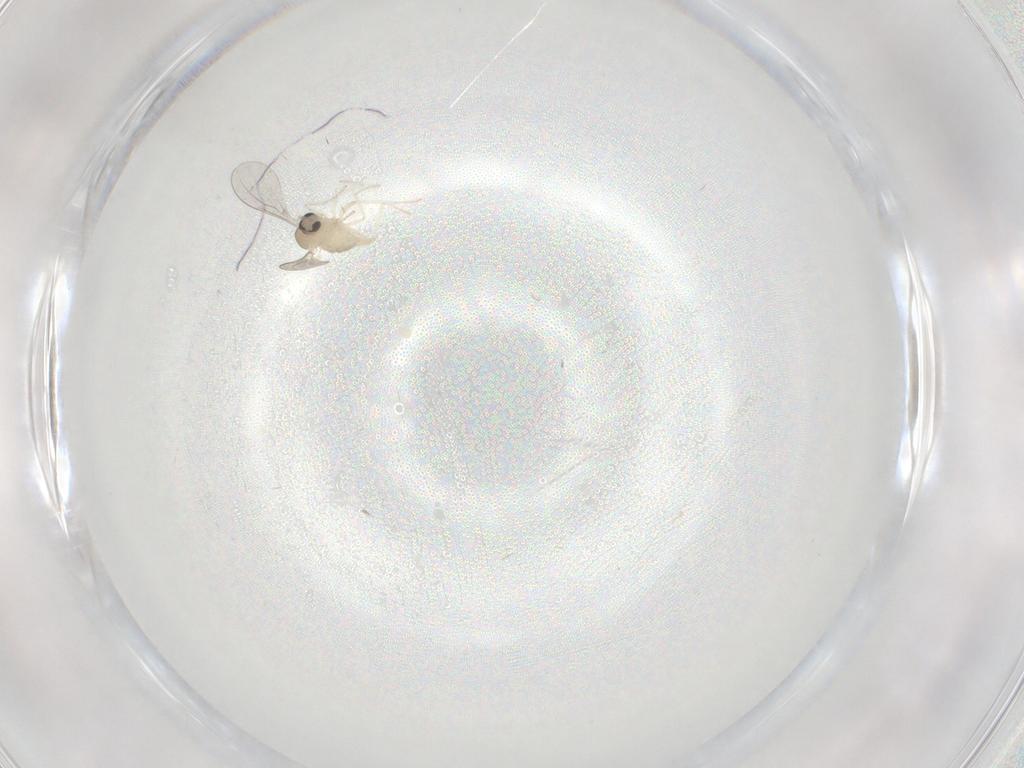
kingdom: Animalia
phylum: Arthropoda
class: Insecta
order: Diptera
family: Cecidomyiidae
